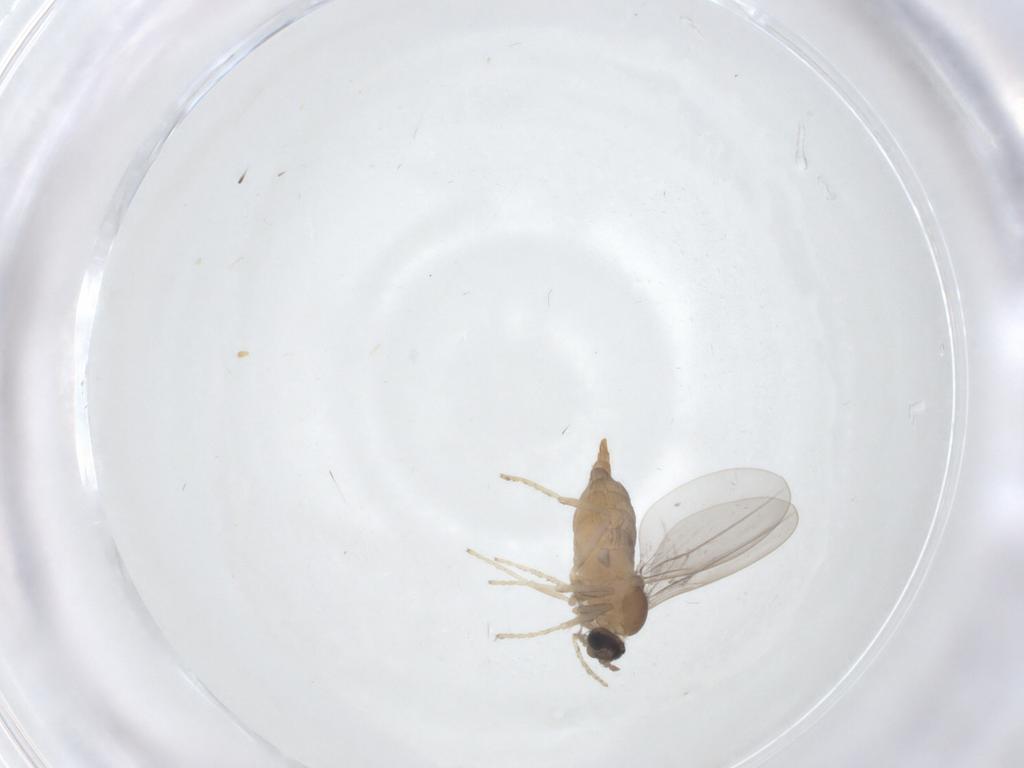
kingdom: Animalia
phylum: Arthropoda
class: Insecta
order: Diptera
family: Cecidomyiidae
